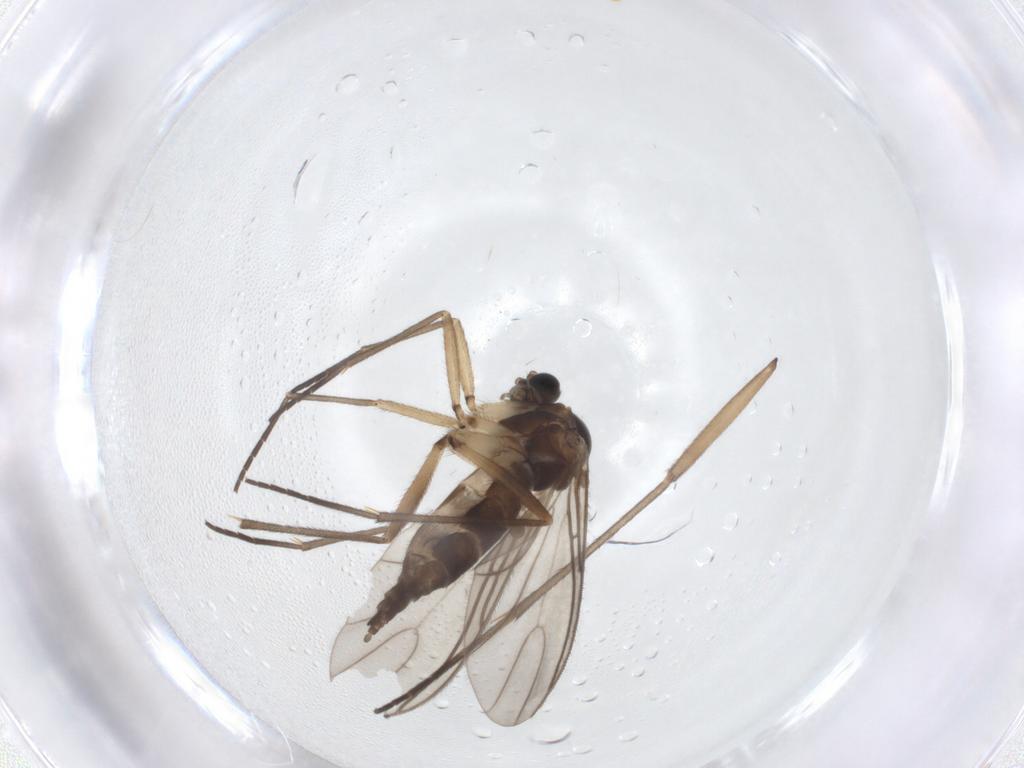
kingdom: Animalia
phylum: Arthropoda
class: Insecta
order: Diptera
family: Sciaridae
